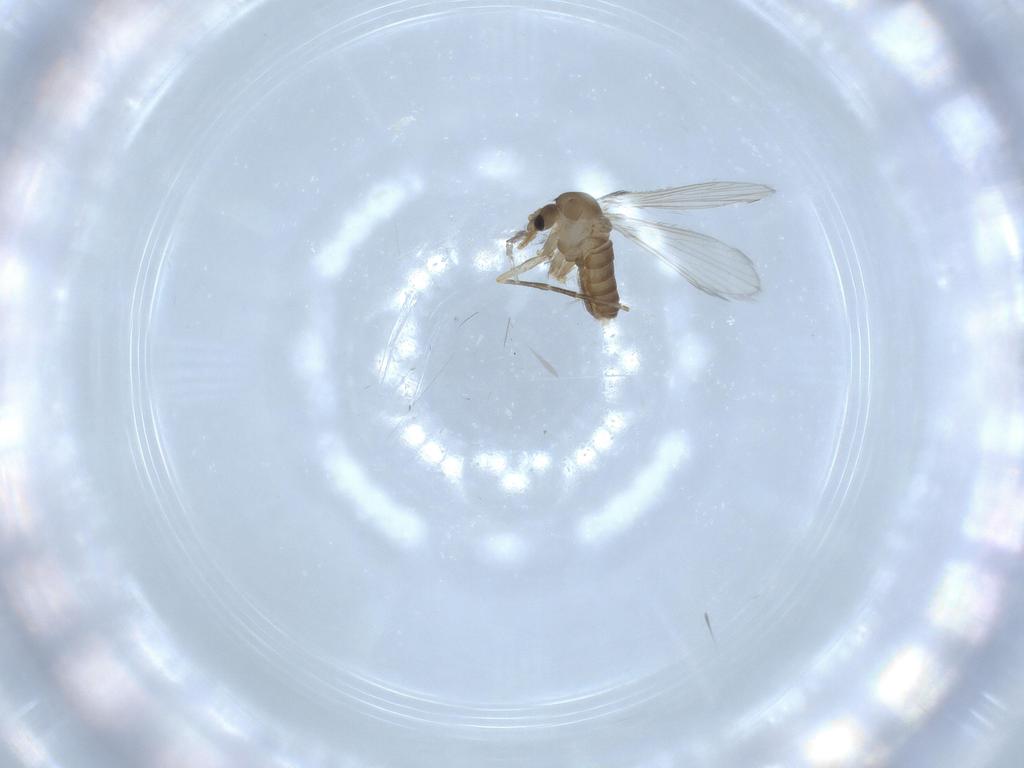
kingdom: Animalia
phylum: Arthropoda
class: Insecta
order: Diptera
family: Psychodidae
